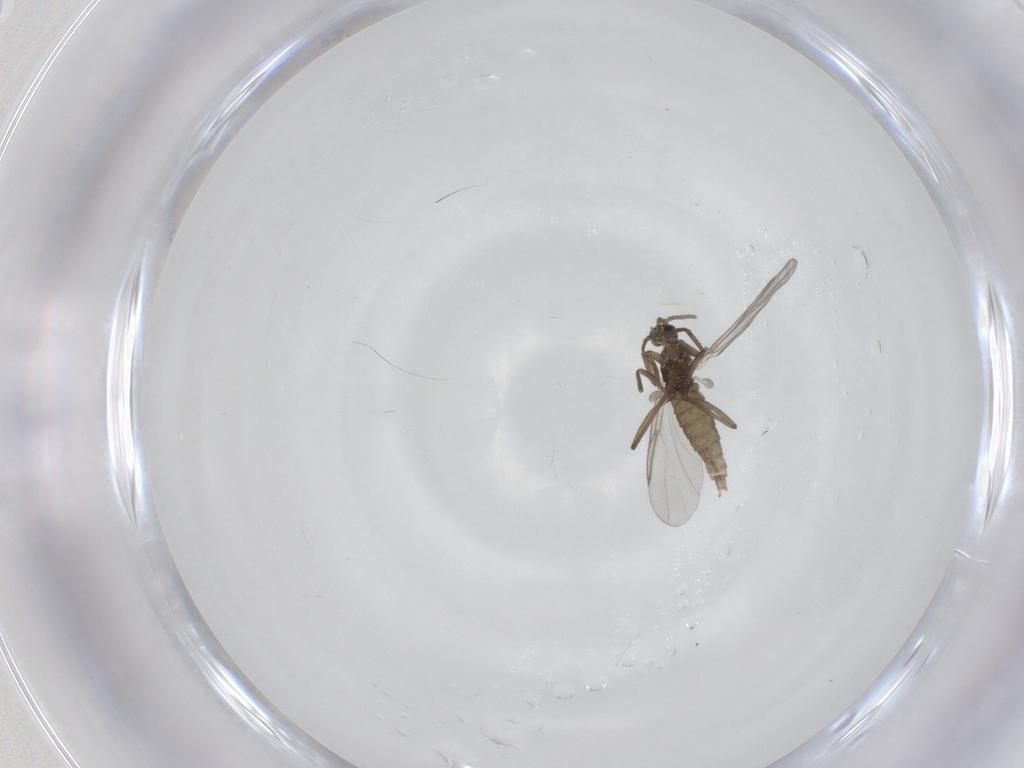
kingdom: Animalia
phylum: Arthropoda
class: Insecta
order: Diptera
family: Cecidomyiidae
